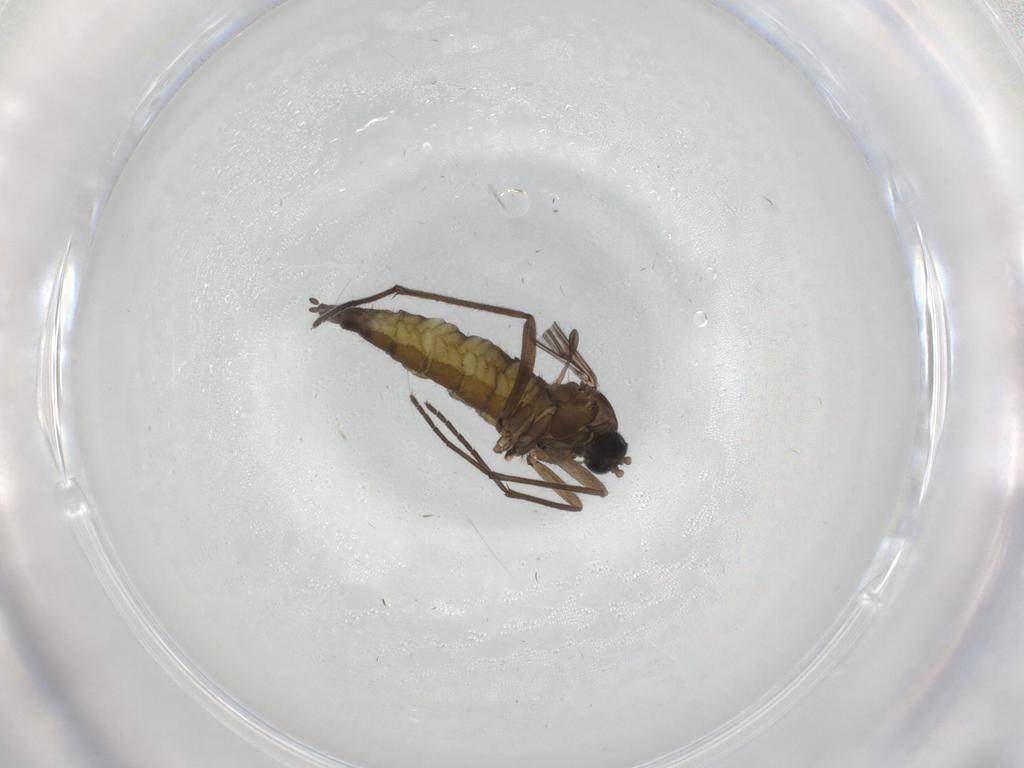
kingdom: Animalia
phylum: Arthropoda
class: Insecta
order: Diptera
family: Sciaridae
